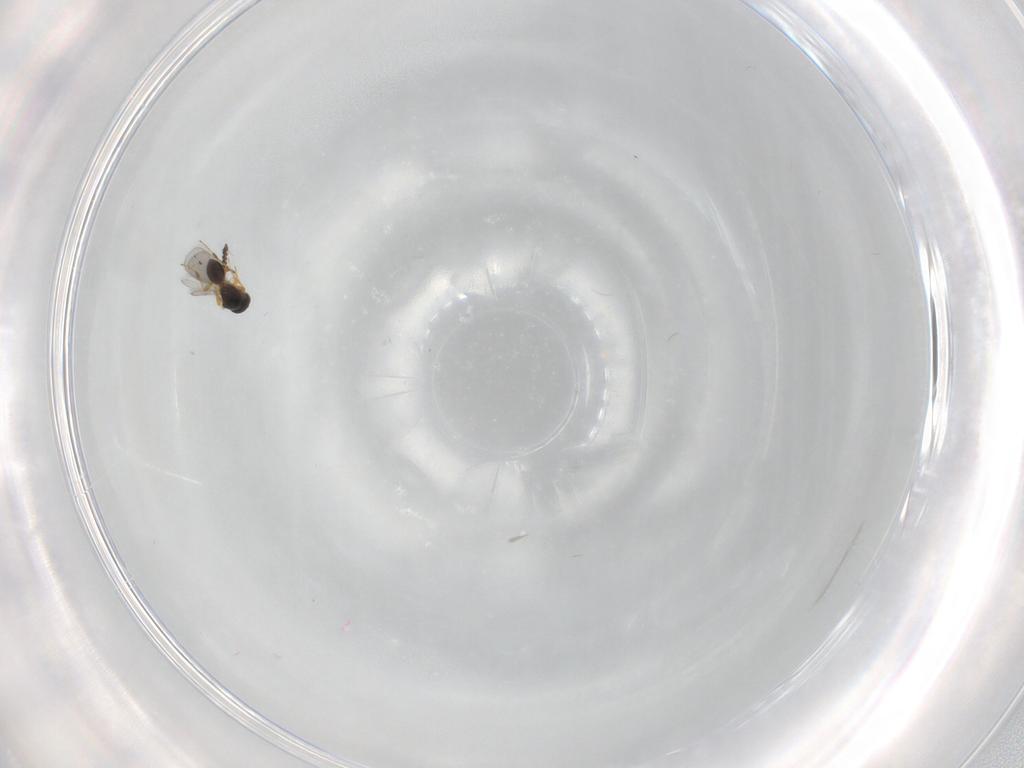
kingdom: Animalia
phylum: Arthropoda
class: Insecta
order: Hymenoptera
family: Platygastridae
